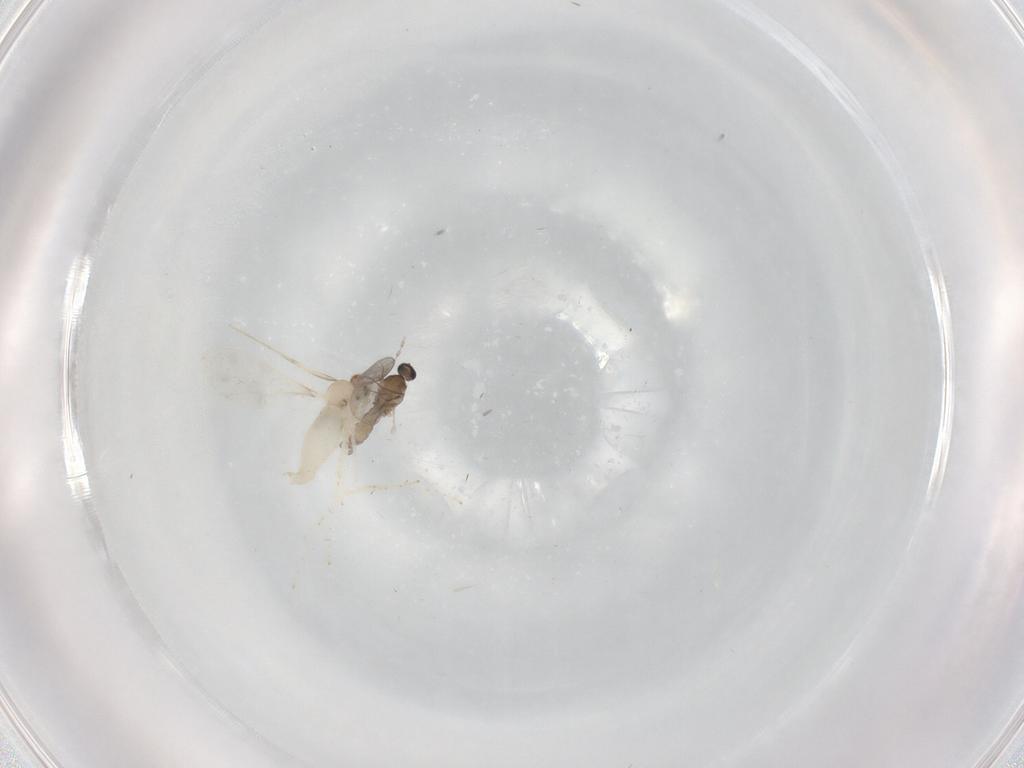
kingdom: Animalia
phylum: Arthropoda
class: Insecta
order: Diptera
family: Cecidomyiidae
